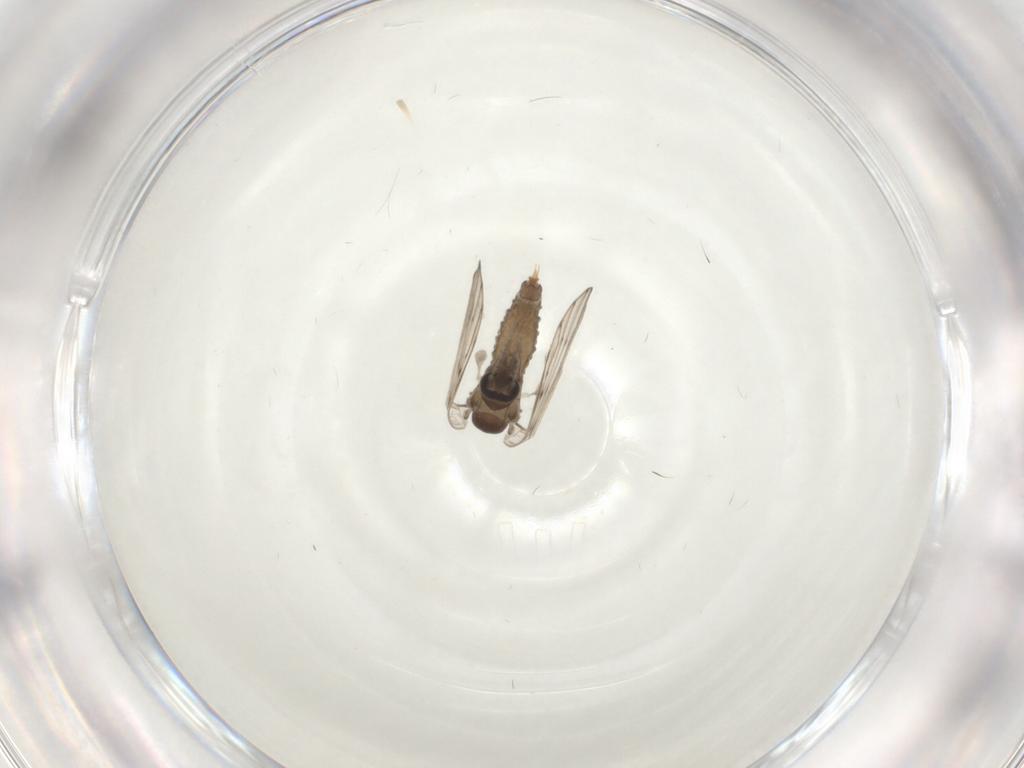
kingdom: Animalia
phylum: Arthropoda
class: Insecta
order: Diptera
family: Psychodidae
